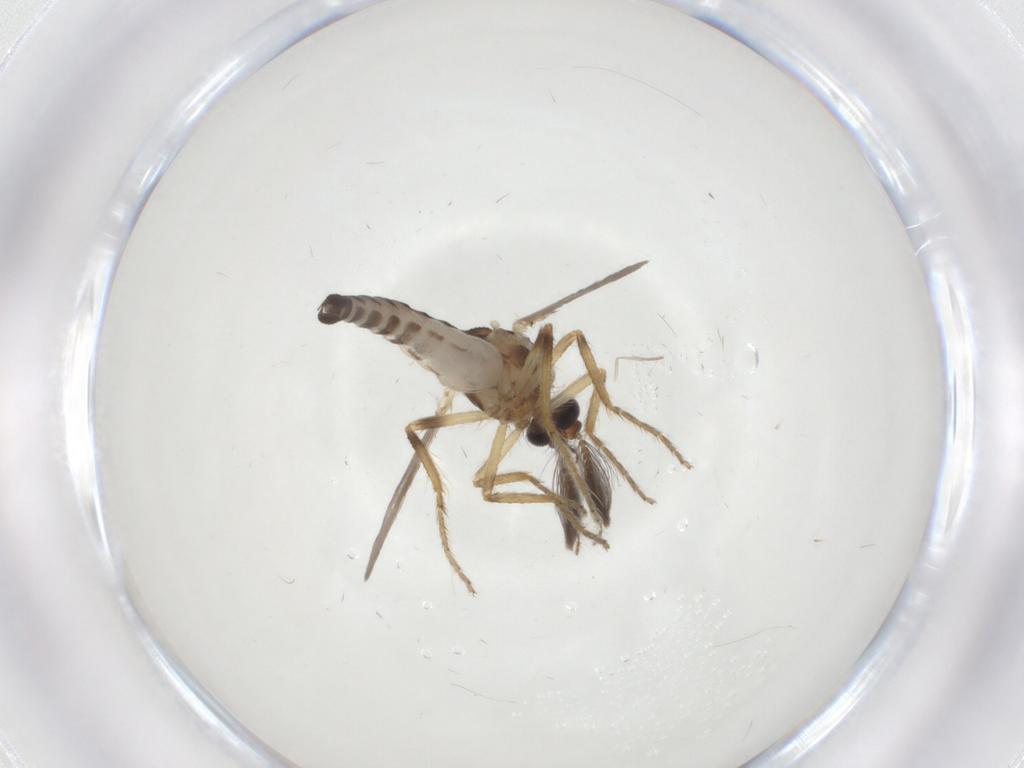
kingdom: Animalia
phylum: Arthropoda
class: Insecta
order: Diptera
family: Ceratopogonidae
